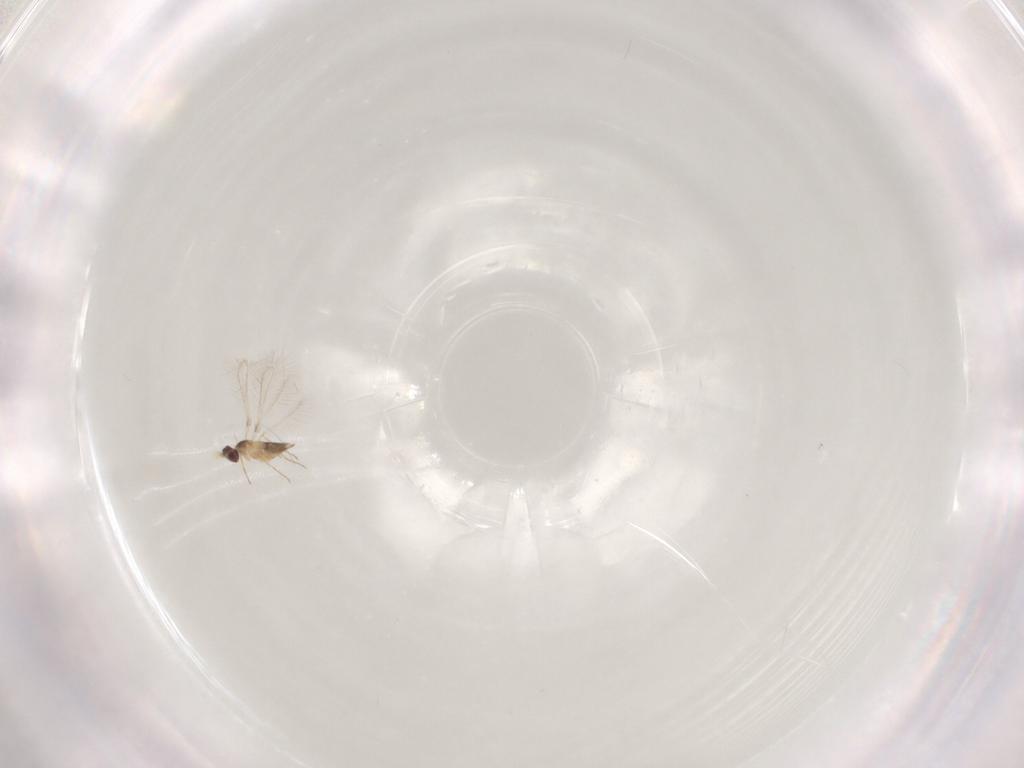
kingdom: Animalia
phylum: Arthropoda
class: Insecta
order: Hymenoptera
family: Mymaridae
